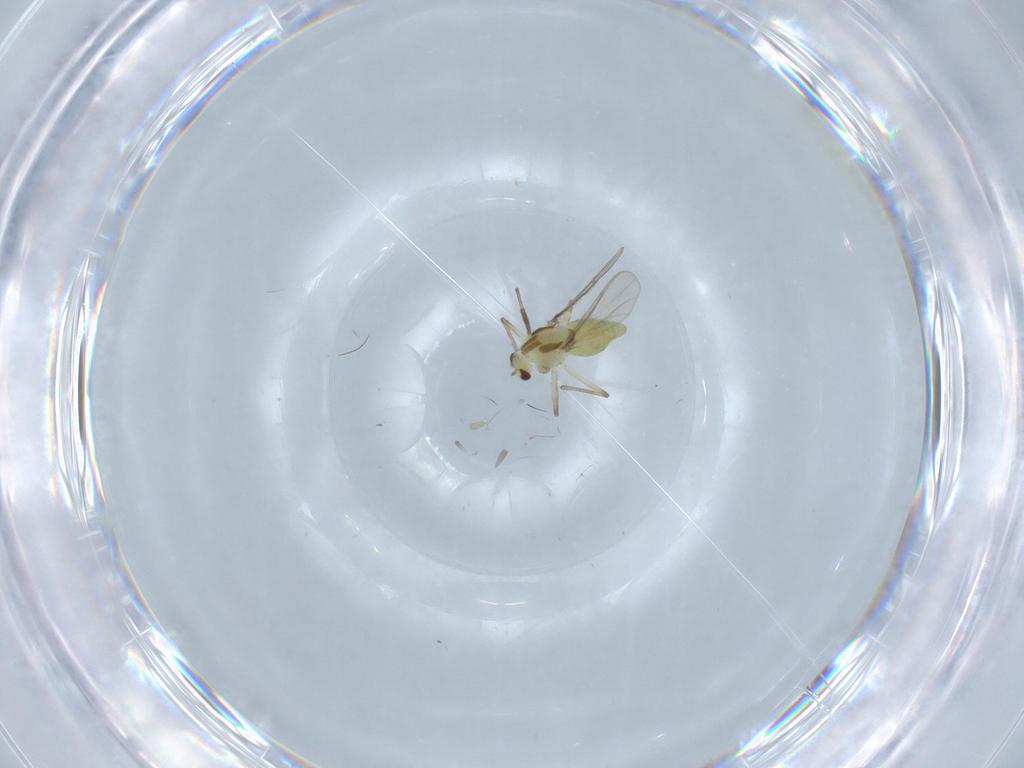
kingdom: Animalia
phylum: Arthropoda
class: Insecta
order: Diptera
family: Chironomidae
